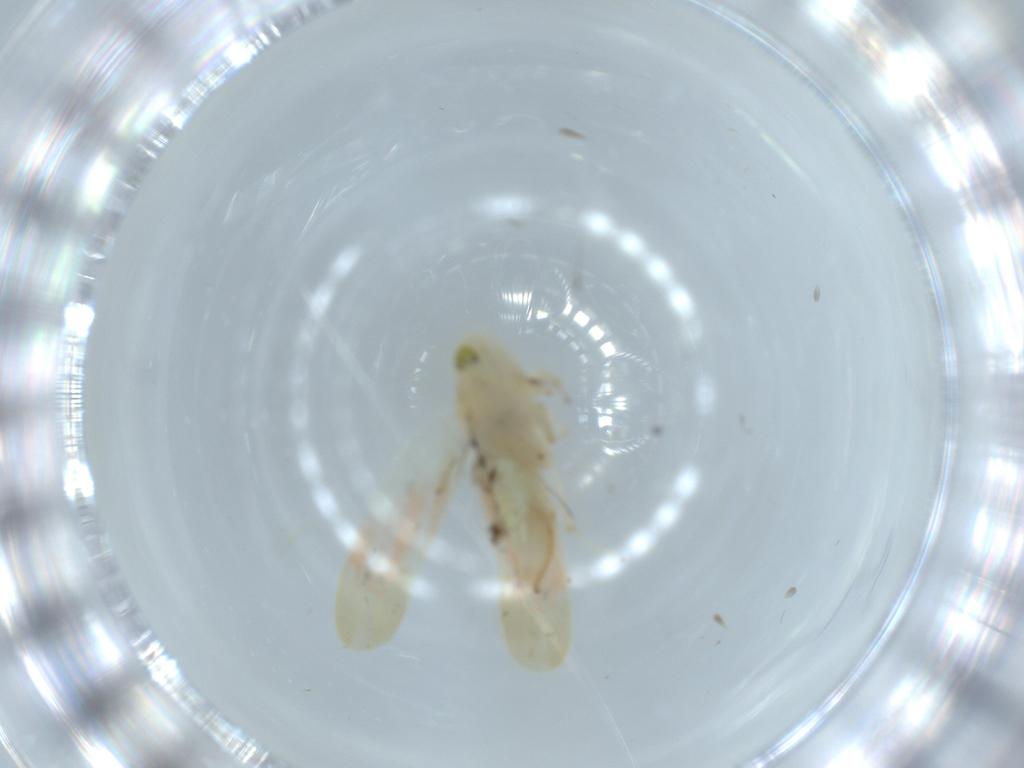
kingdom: Animalia
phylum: Arthropoda
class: Insecta
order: Hemiptera
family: Cicadellidae
